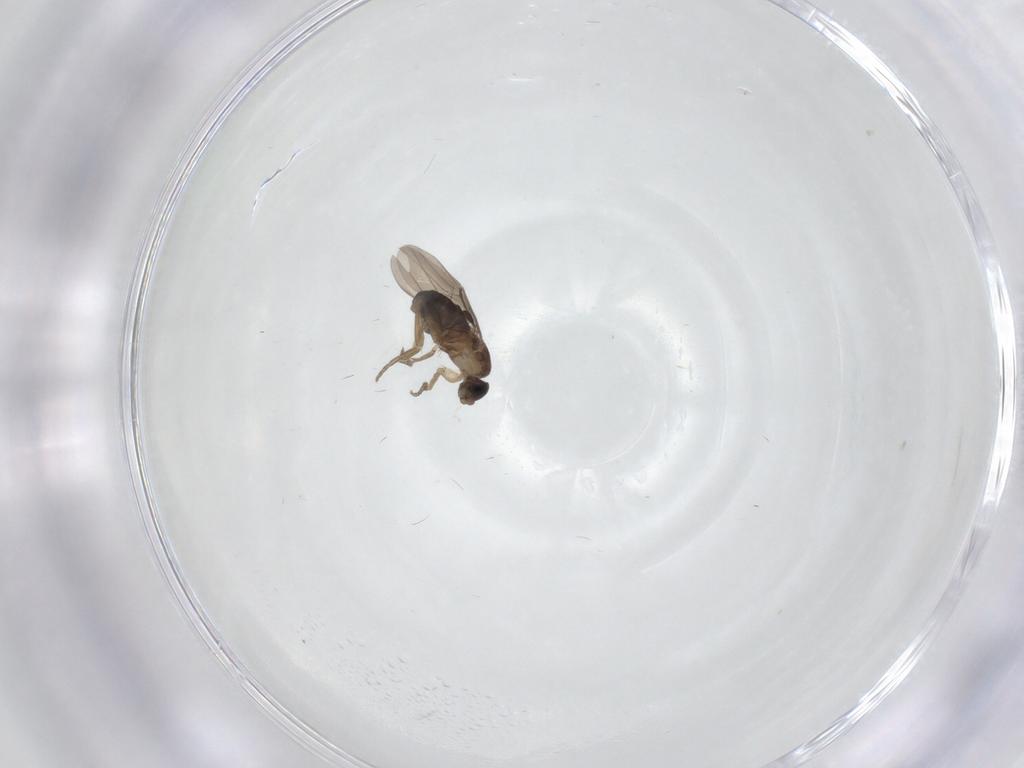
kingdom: Animalia
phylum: Arthropoda
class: Insecta
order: Diptera
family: Phoridae
